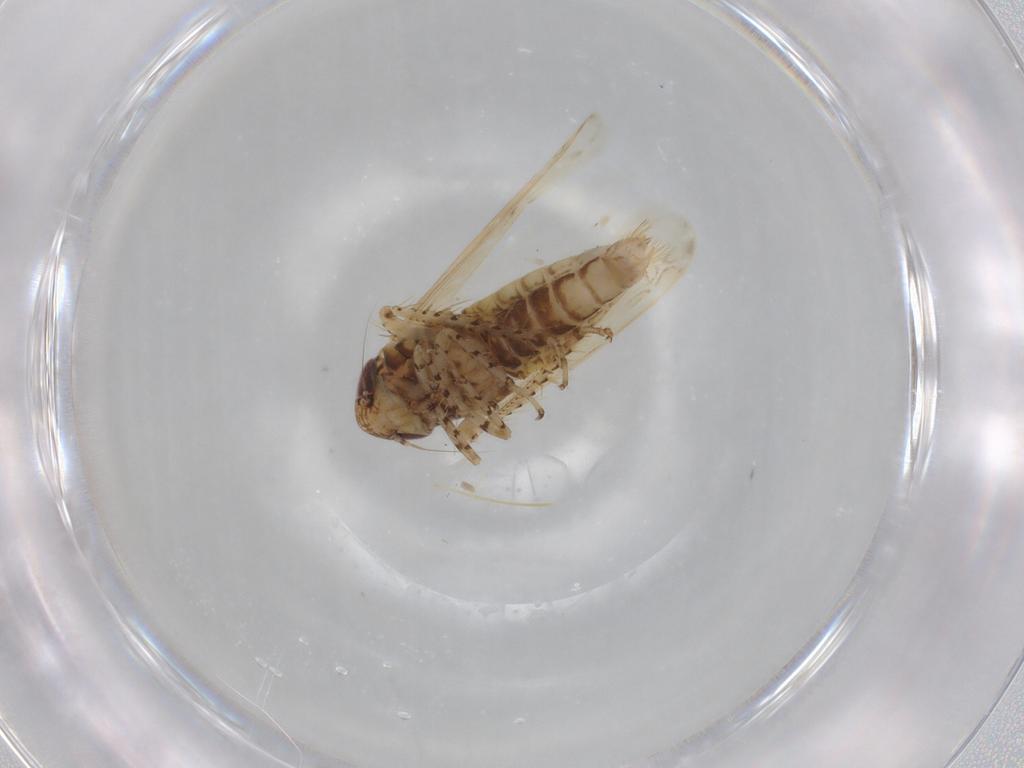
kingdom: Animalia
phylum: Arthropoda
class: Insecta
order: Hemiptera
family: Cicadellidae
